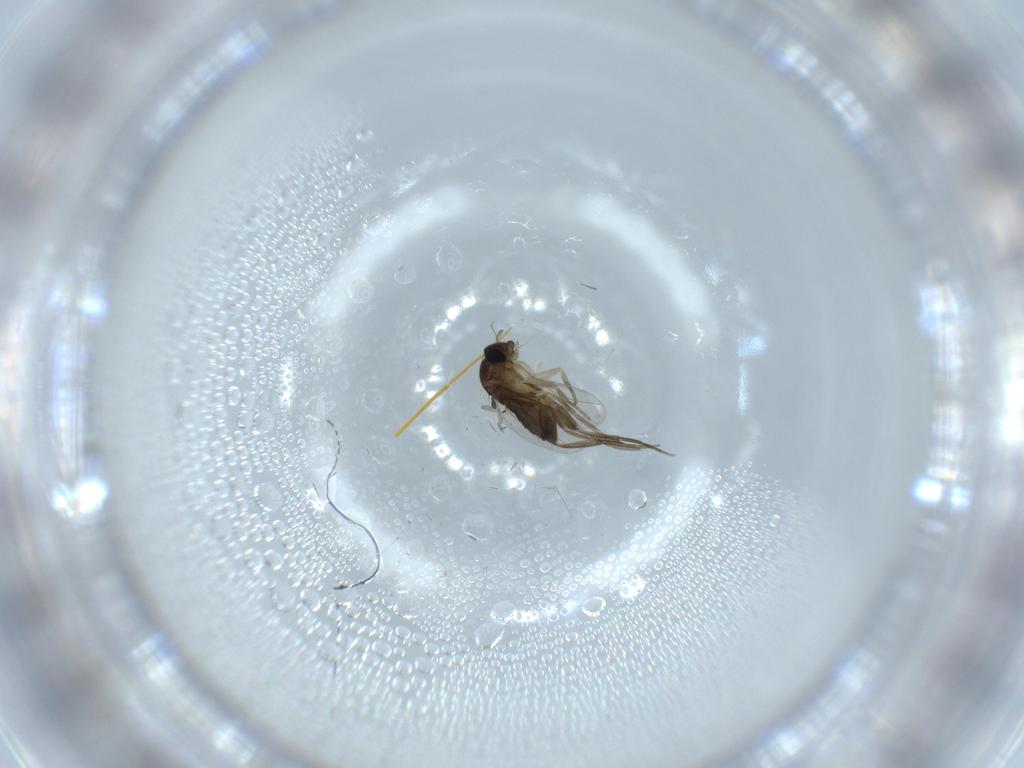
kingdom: Animalia
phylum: Arthropoda
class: Insecta
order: Diptera
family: Phoridae
